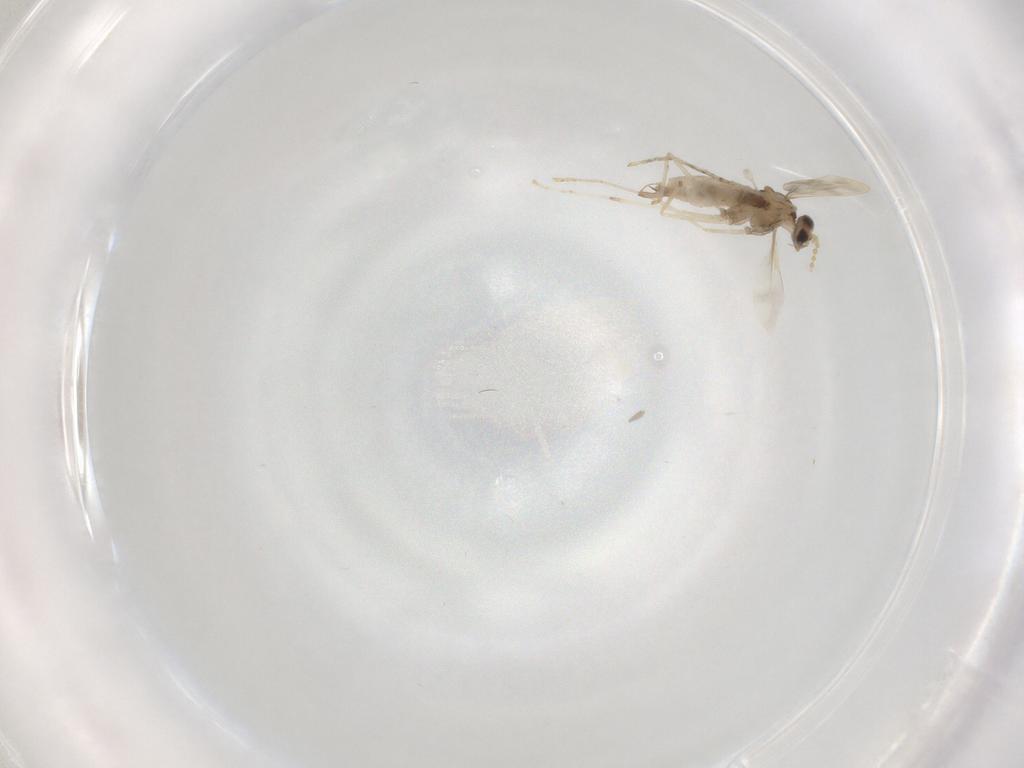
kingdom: Animalia
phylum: Arthropoda
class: Insecta
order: Diptera
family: Cecidomyiidae
